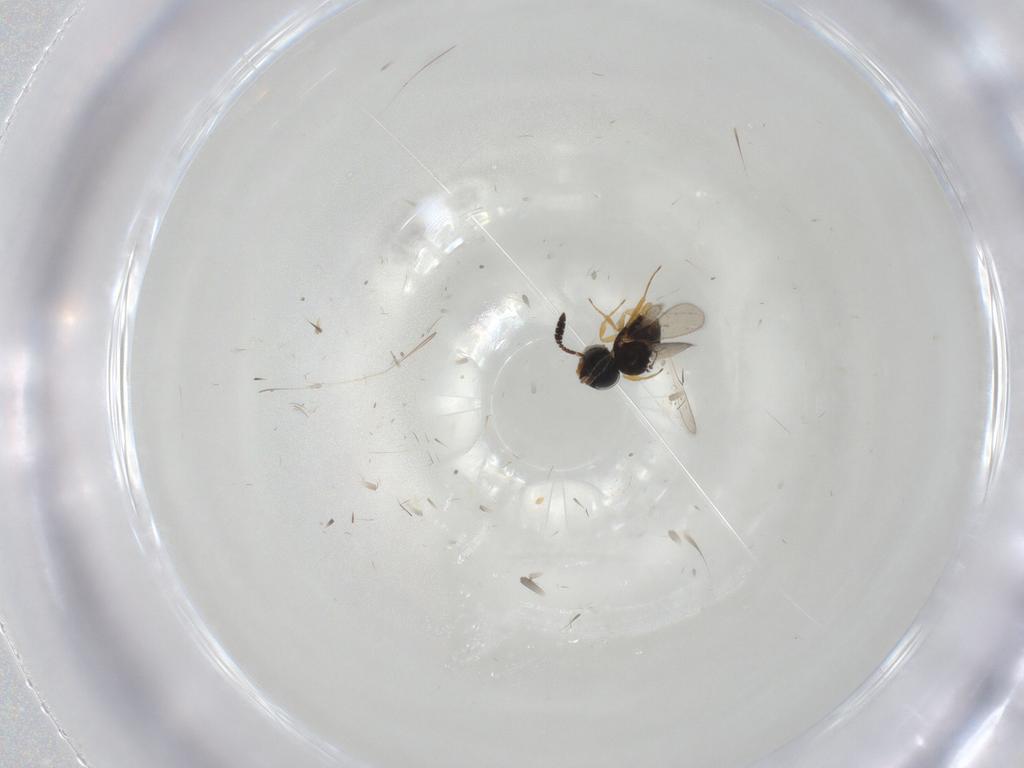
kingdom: Animalia
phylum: Arthropoda
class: Insecta
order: Hymenoptera
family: Scelionidae
